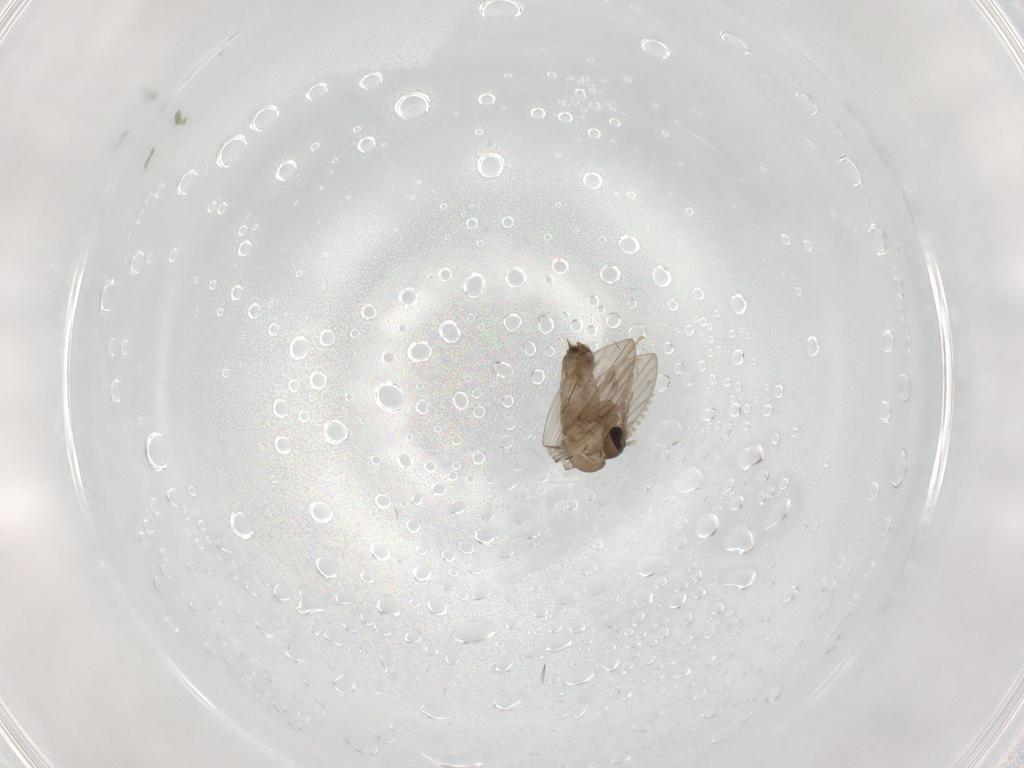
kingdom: Animalia
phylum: Arthropoda
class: Insecta
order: Diptera
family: Psychodidae
